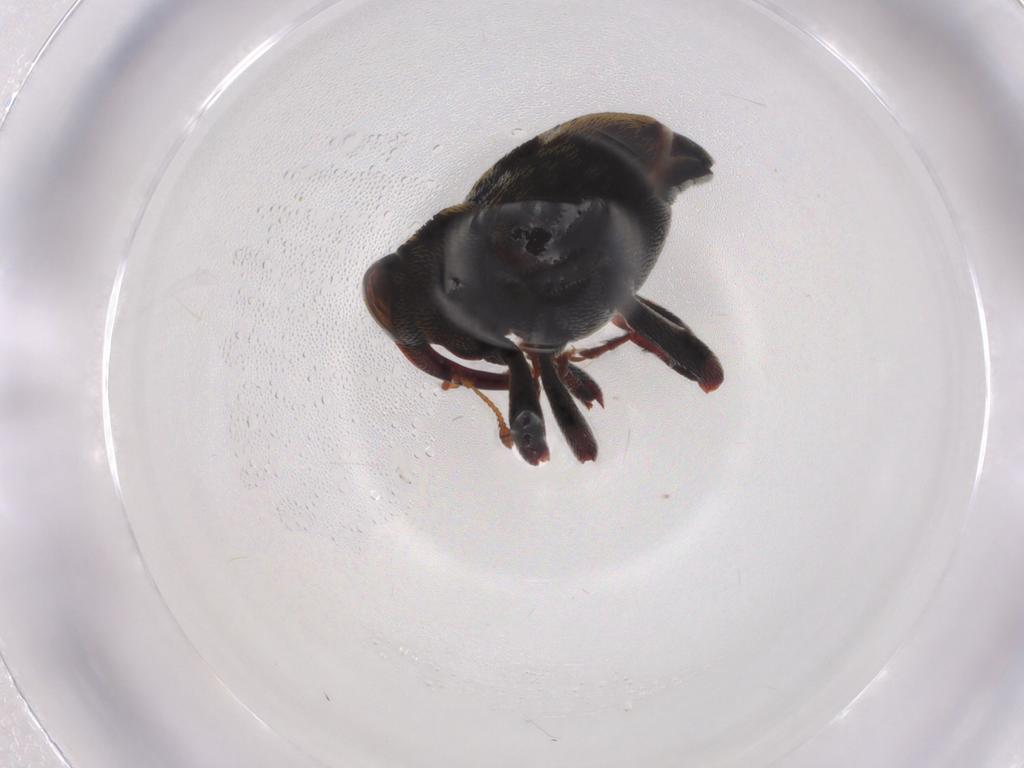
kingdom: Animalia
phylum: Arthropoda
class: Insecta
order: Coleoptera
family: Curculionidae
